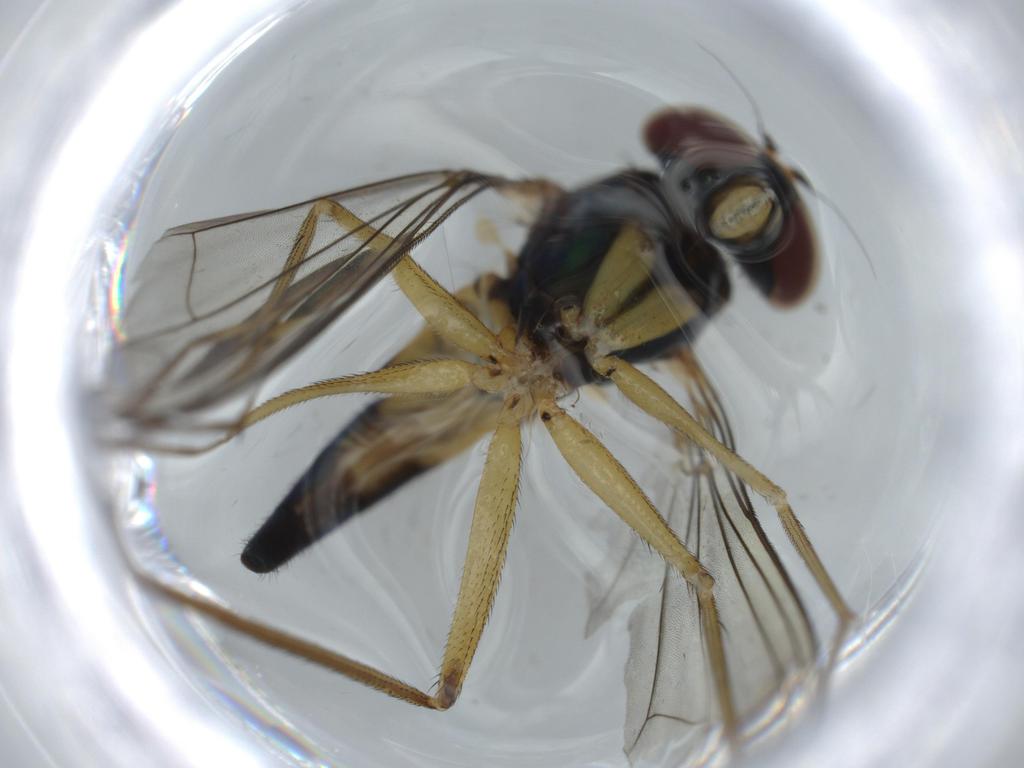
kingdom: Animalia
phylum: Arthropoda
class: Insecta
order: Diptera
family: Dolichopodidae
